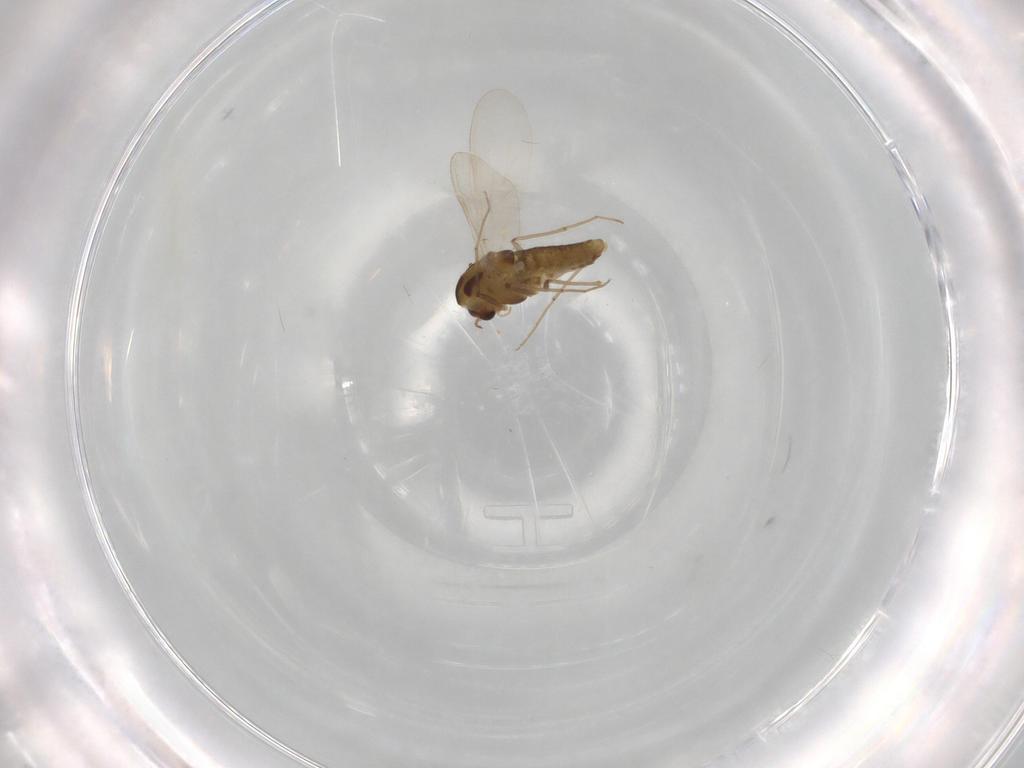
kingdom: Animalia
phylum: Arthropoda
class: Insecta
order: Diptera
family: Chironomidae
